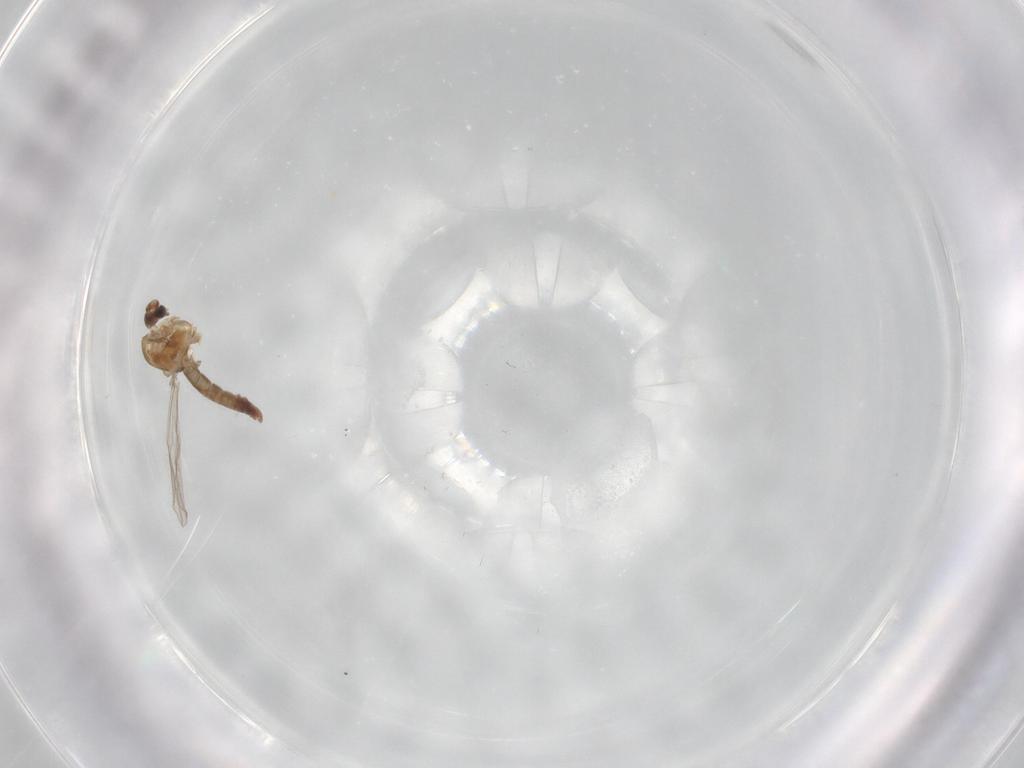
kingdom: Animalia
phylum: Arthropoda
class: Insecta
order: Diptera
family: Chironomidae
